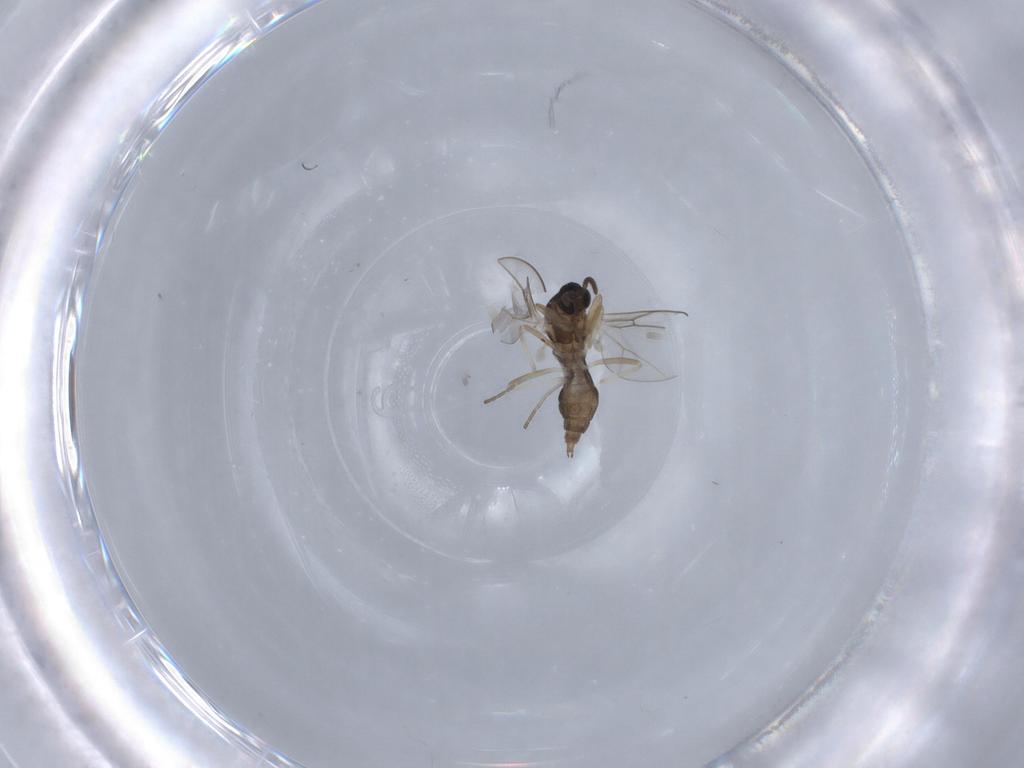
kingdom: Animalia
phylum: Arthropoda
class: Insecta
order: Diptera
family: Cecidomyiidae
